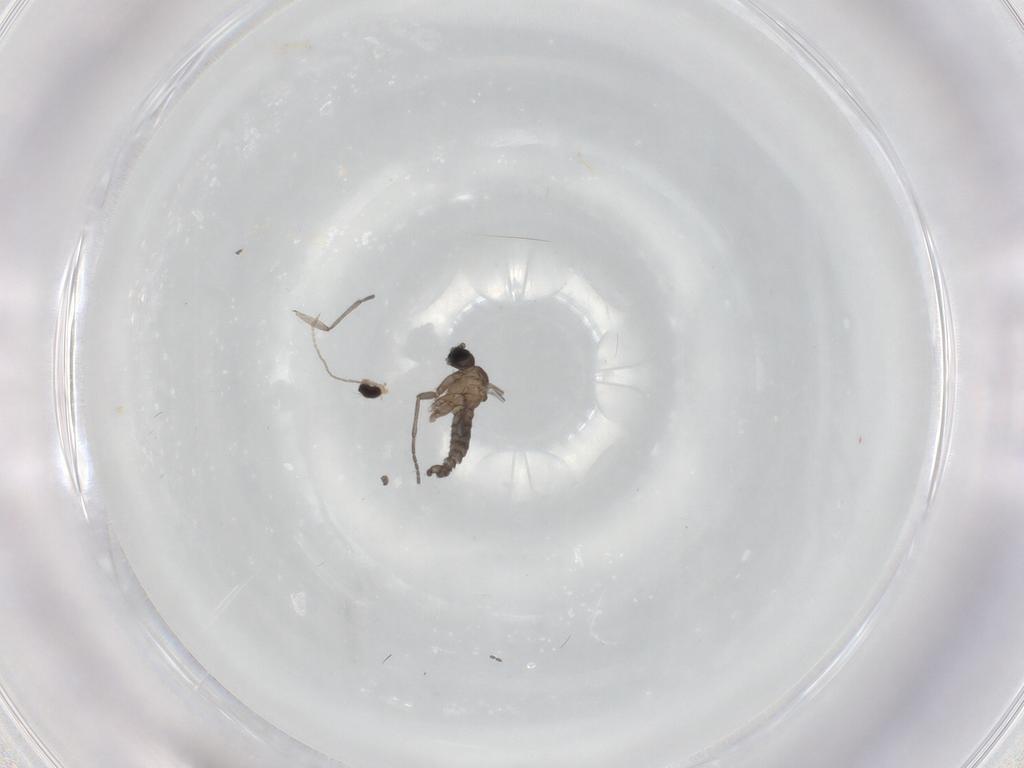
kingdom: Animalia
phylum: Arthropoda
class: Insecta
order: Diptera
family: Sciaridae
